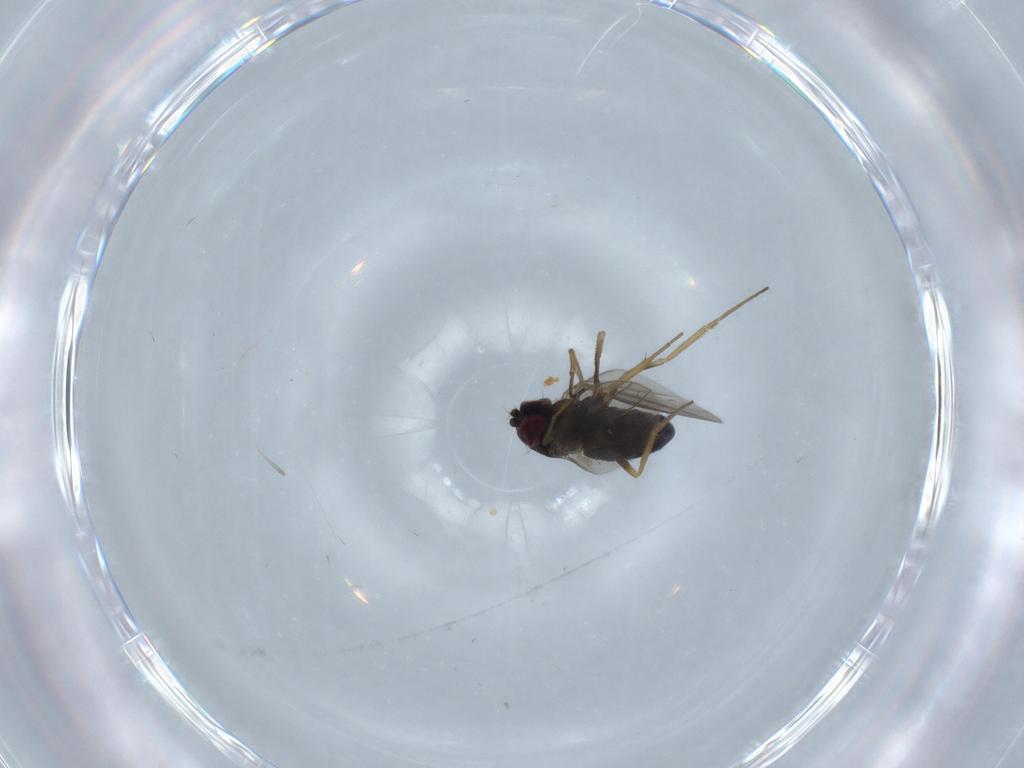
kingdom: Animalia
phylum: Arthropoda
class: Insecta
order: Diptera
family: Dolichopodidae
